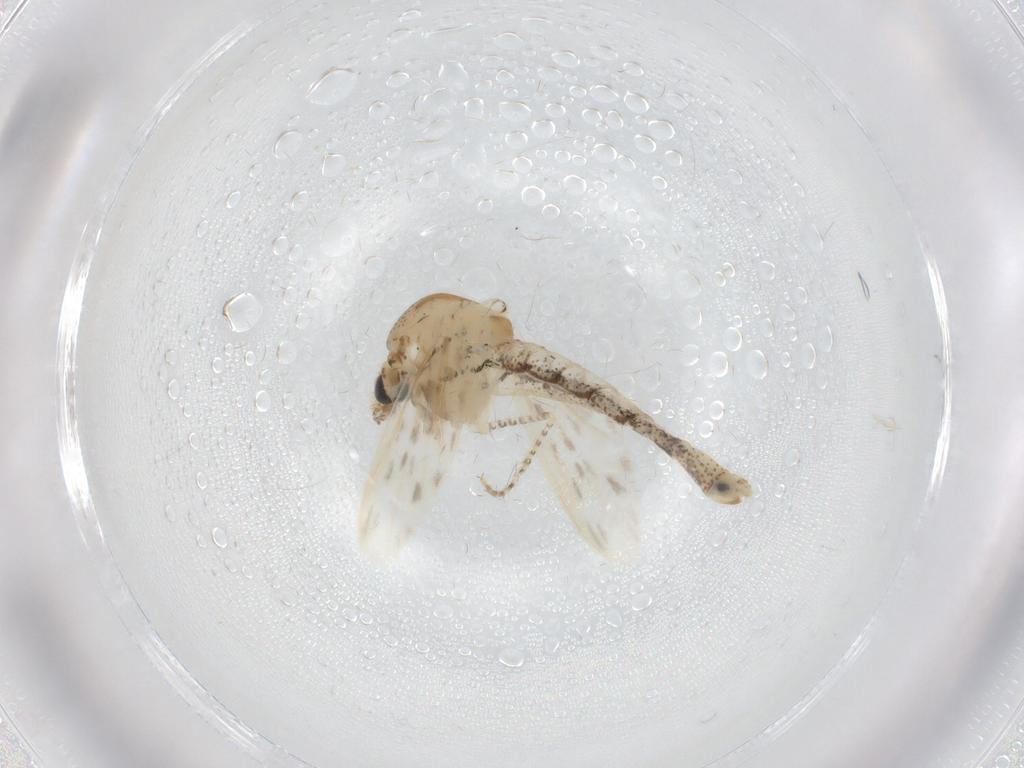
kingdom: Animalia
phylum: Arthropoda
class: Insecta
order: Diptera
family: Chaoboridae
